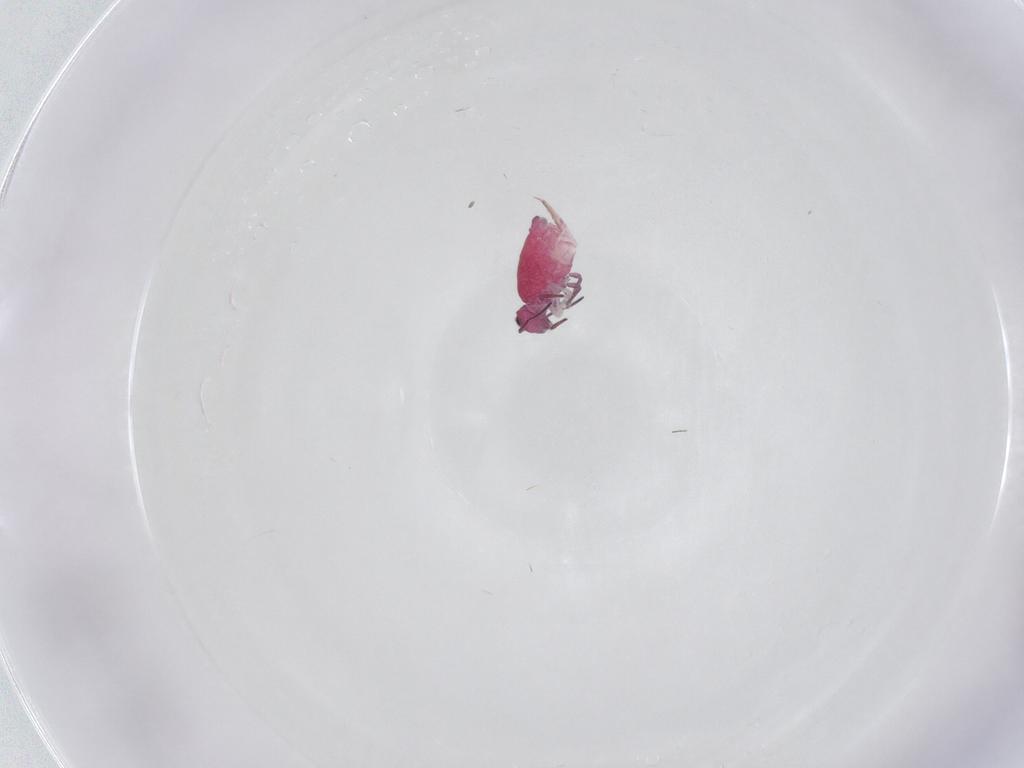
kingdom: Animalia
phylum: Arthropoda
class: Collembola
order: Symphypleona
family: Sminthuridae
